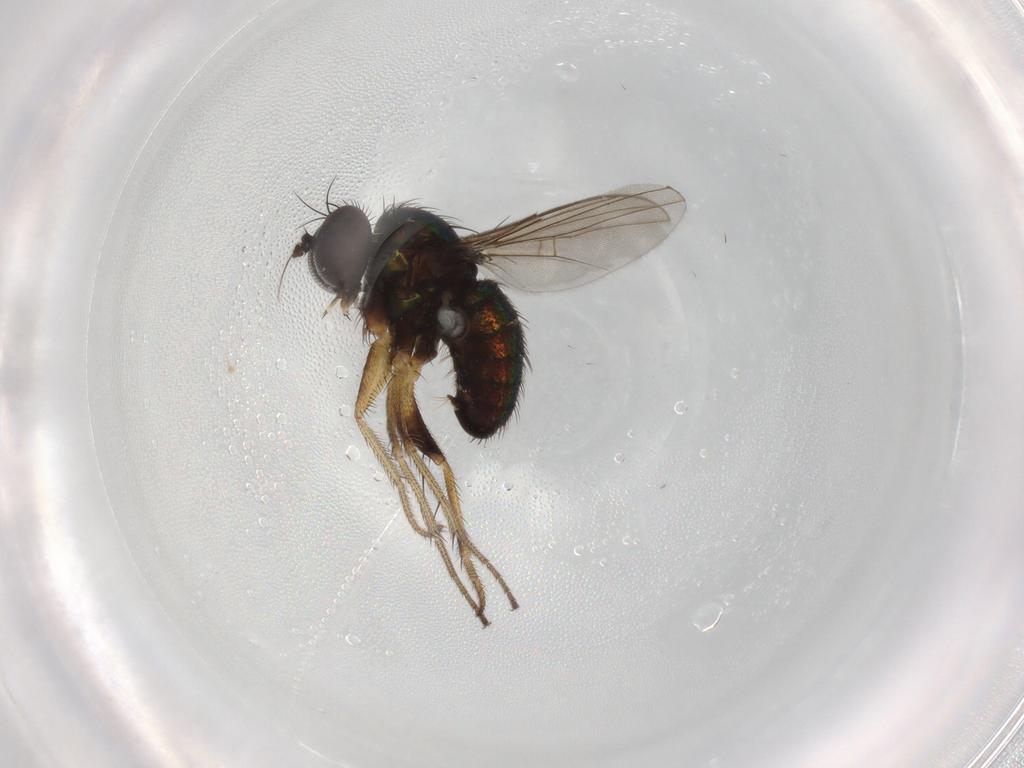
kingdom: Animalia
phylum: Arthropoda
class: Insecta
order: Diptera
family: Dolichopodidae
